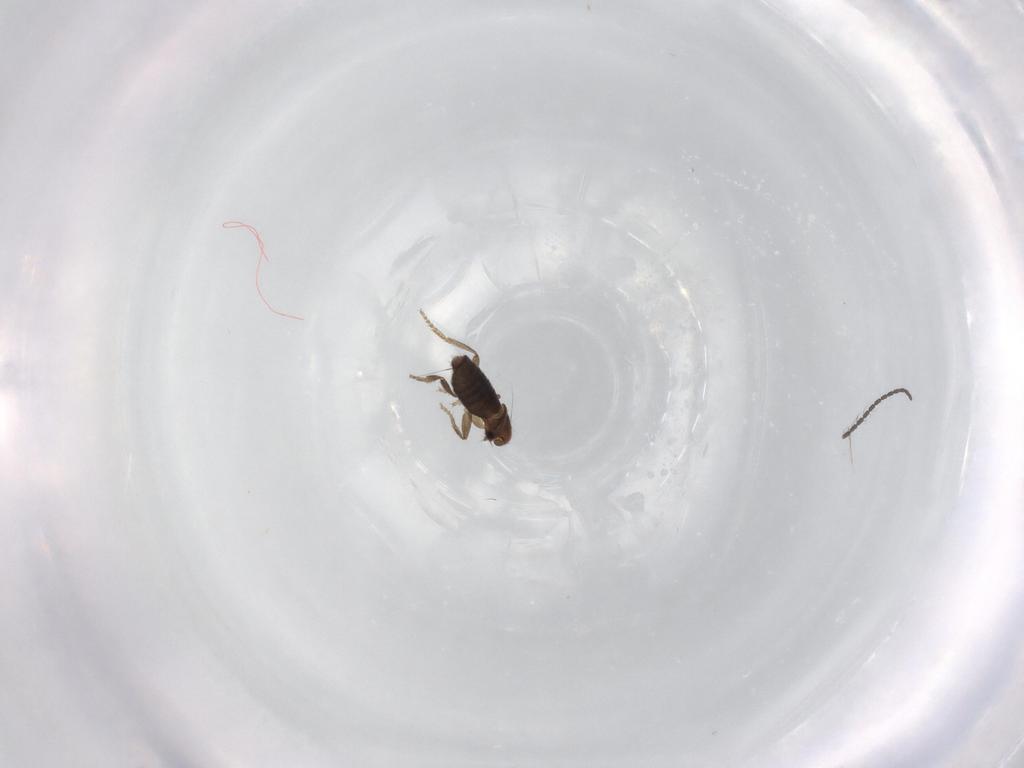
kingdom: Animalia
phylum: Arthropoda
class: Insecta
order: Diptera
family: Cecidomyiidae
